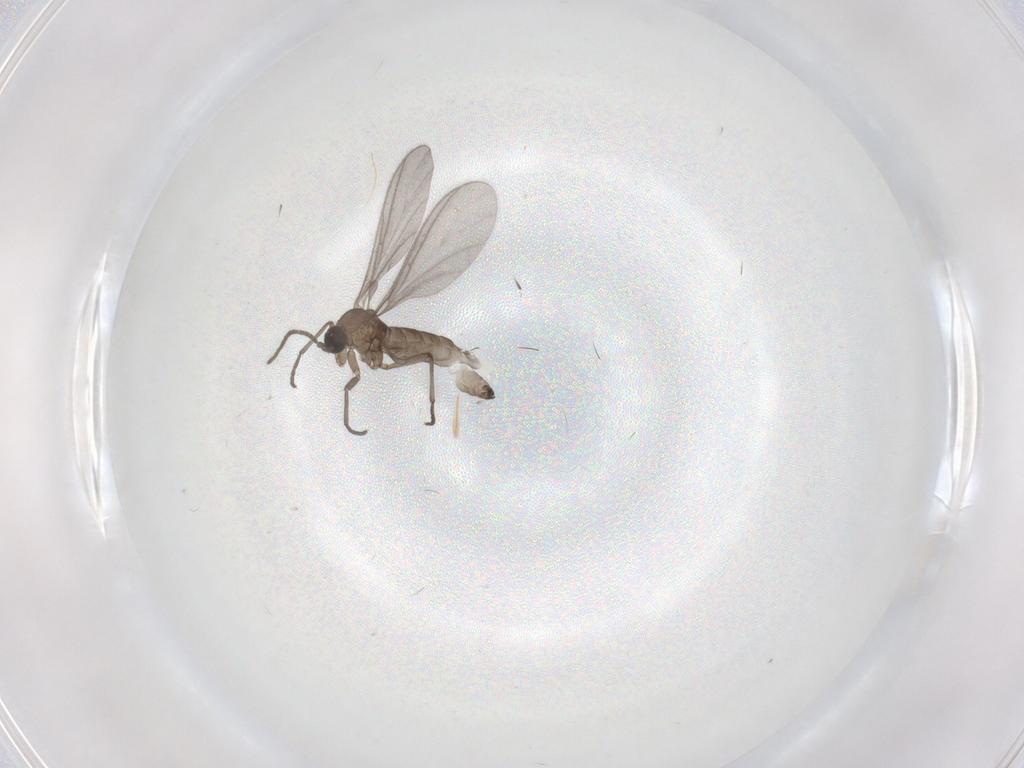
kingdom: Animalia
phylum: Arthropoda
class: Insecta
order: Diptera
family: Sciaridae
